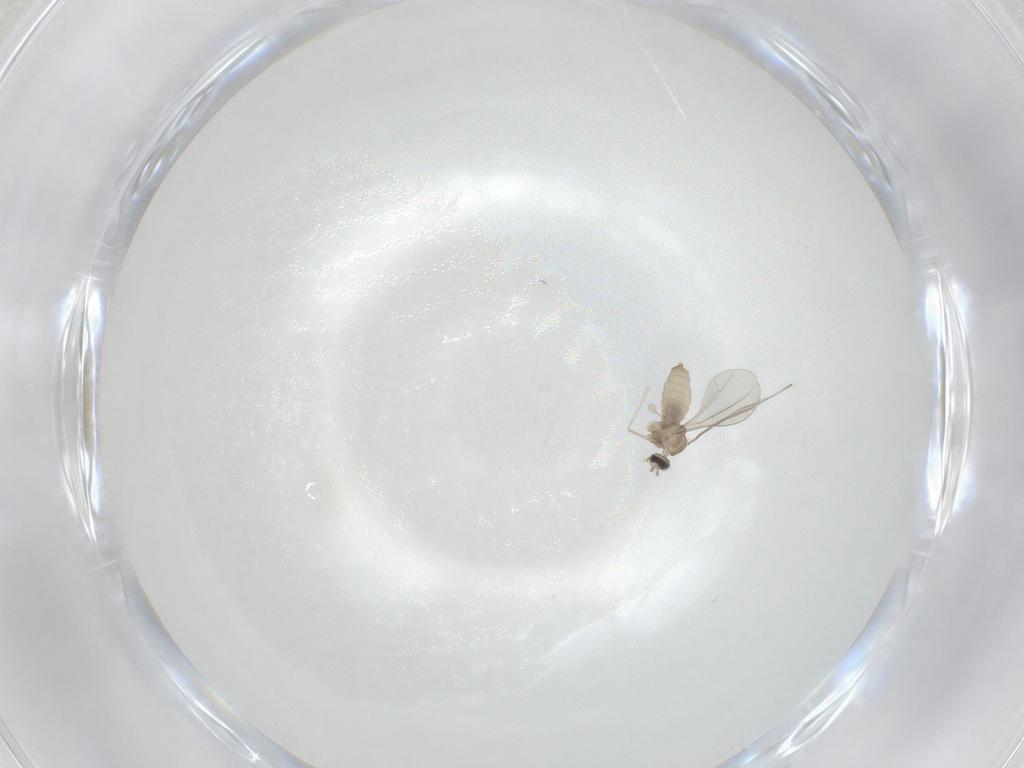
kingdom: Animalia
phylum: Arthropoda
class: Insecta
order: Diptera
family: Cecidomyiidae
